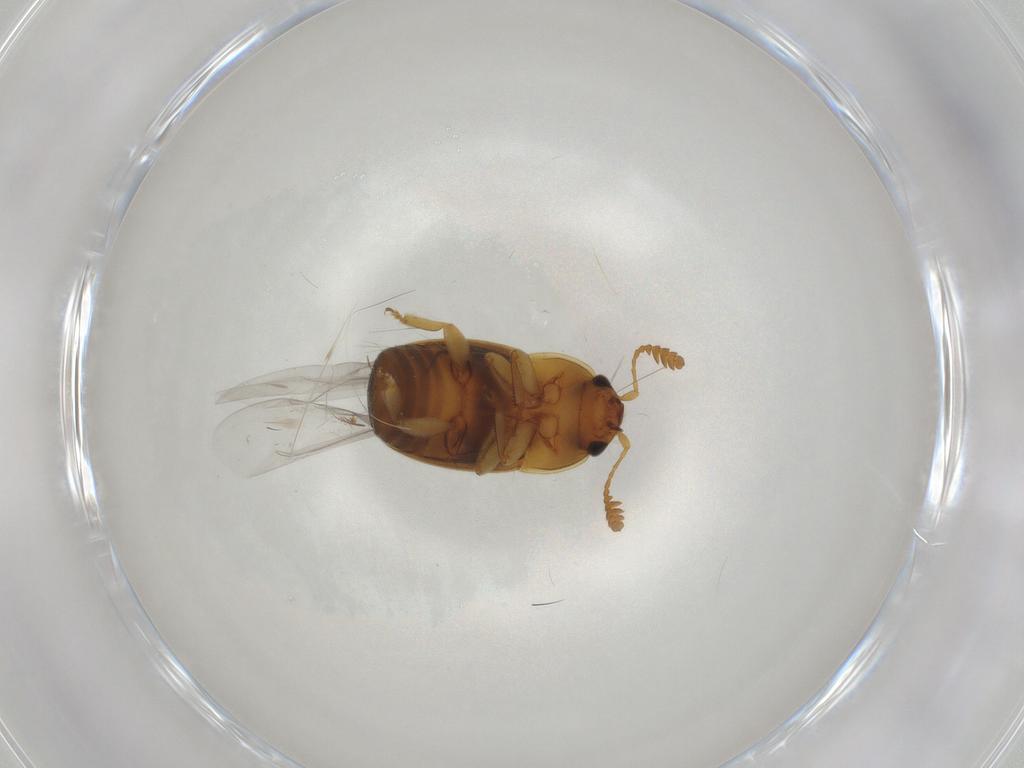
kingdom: Animalia
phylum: Arthropoda
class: Insecta
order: Coleoptera
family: Nitidulidae
